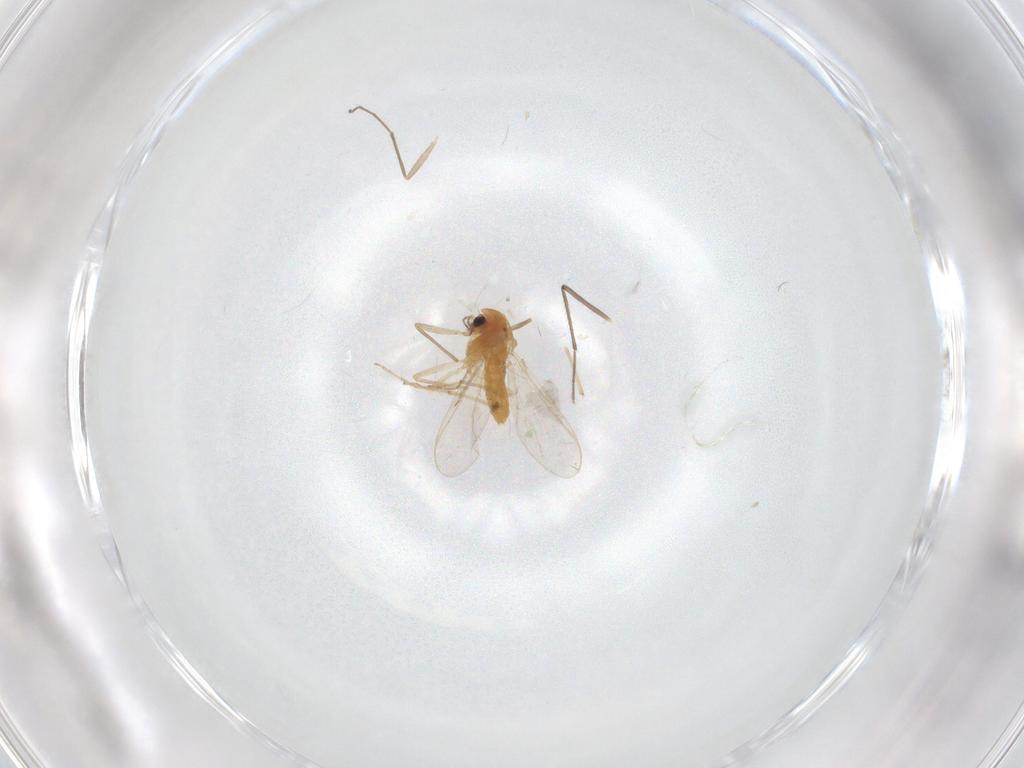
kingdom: Animalia
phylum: Arthropoda
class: Insecta
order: Diptera
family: Chironomidae
